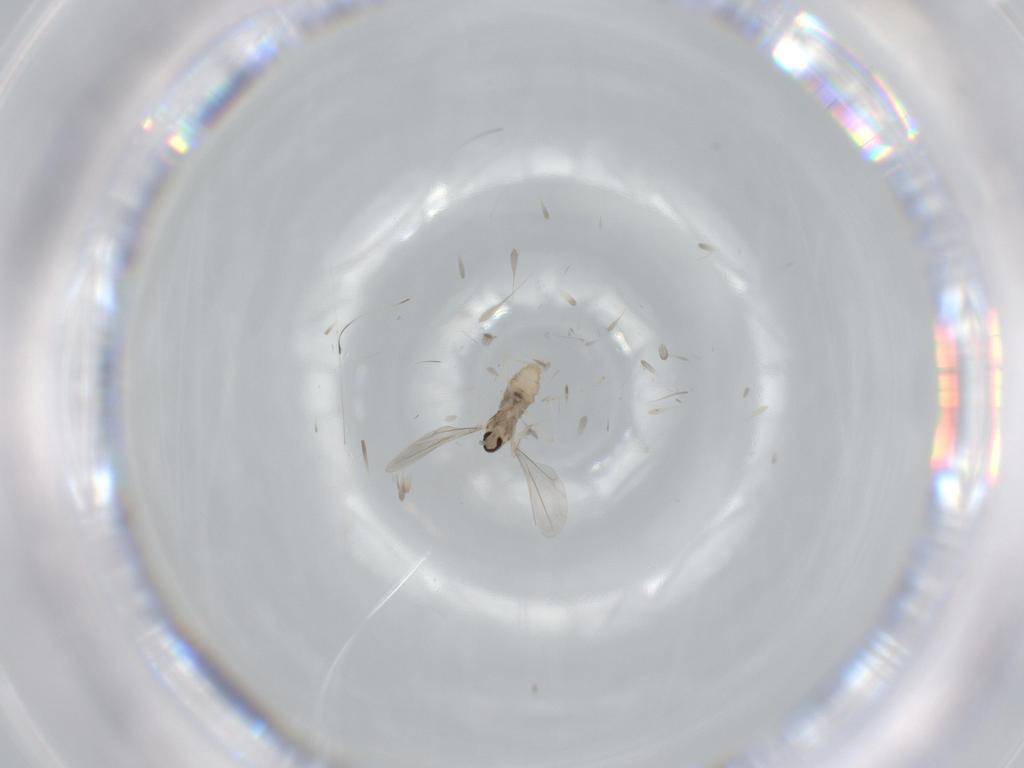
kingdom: Animalia
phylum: Arthropoda
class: Insecta
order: Diptera
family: Cecidomyiidae
